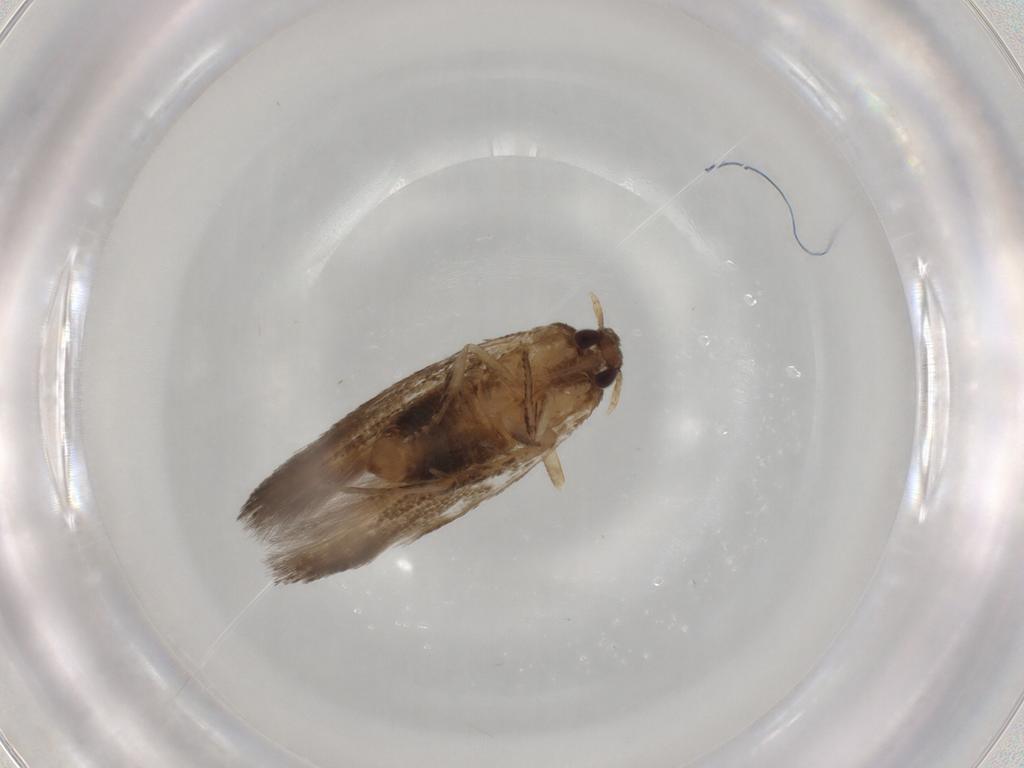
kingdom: Animalia
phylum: Arthropoda
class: Insecta
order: Lepidoptera
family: Cosmopterigidae
